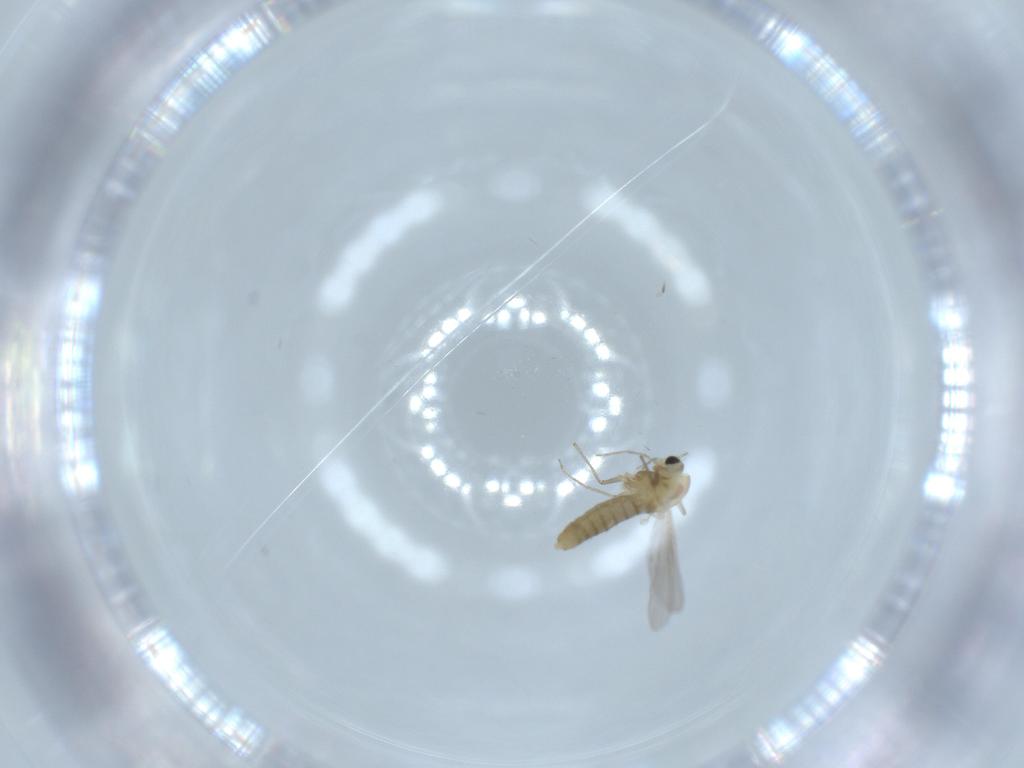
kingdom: Animalia
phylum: Arthropoda
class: Insecta
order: Diptera
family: Chironomidae
